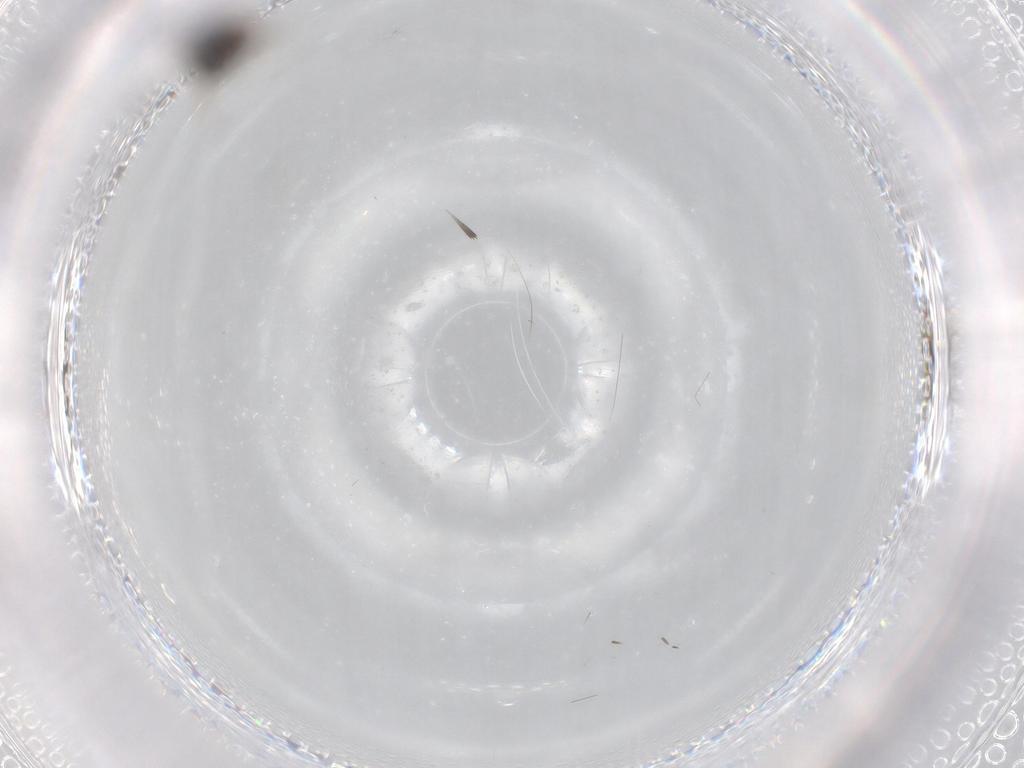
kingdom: Animalia
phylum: Arthropoda
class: Insecta
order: Hymenoptera
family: Scelionidae
